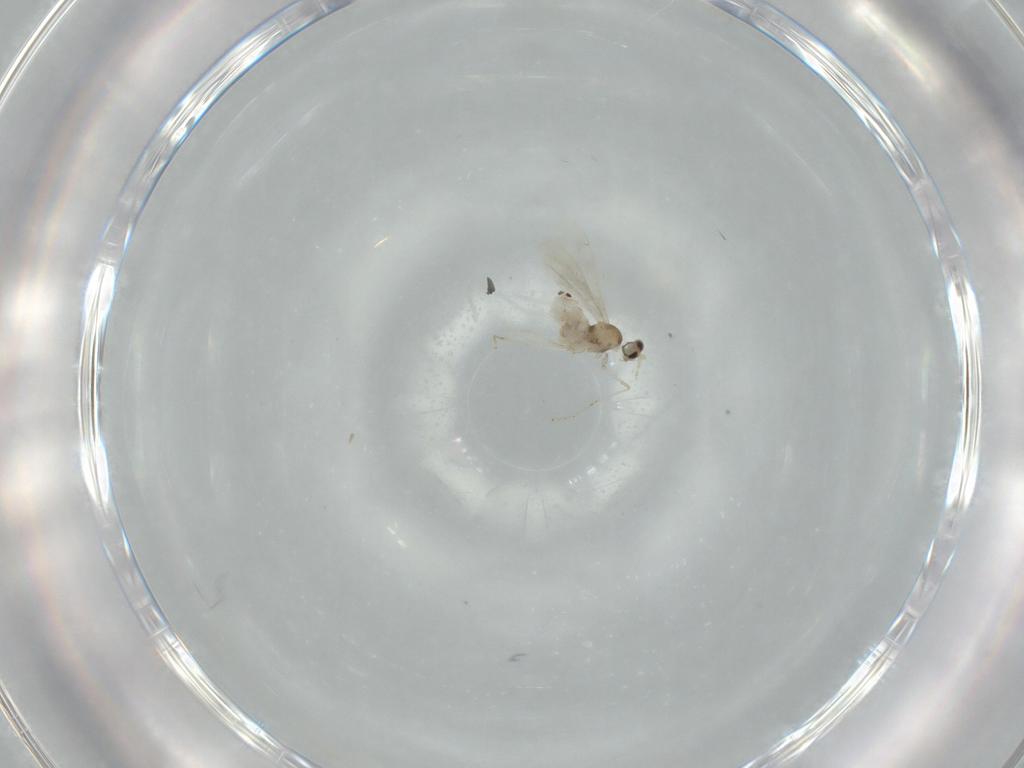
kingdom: Animalia
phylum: Arthropoda
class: Insecta
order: Diptera
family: Cecidomyiidae
